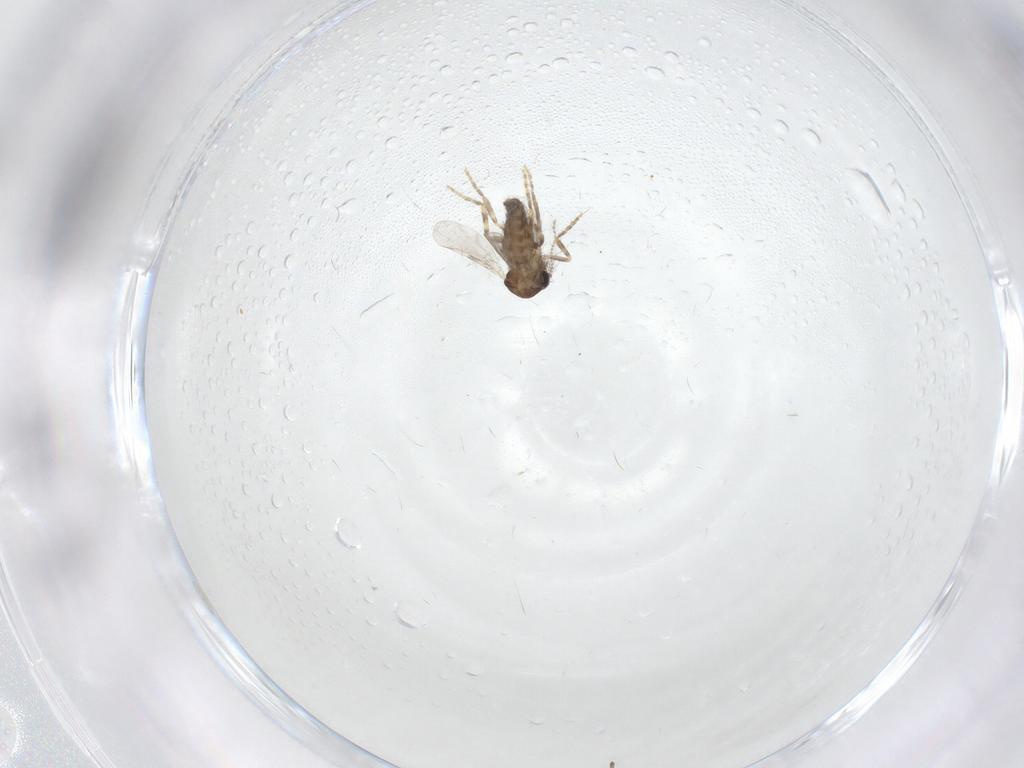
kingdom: Animalia
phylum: Arthropoda
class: Insecta
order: Diptera
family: Ceratopogonidae
